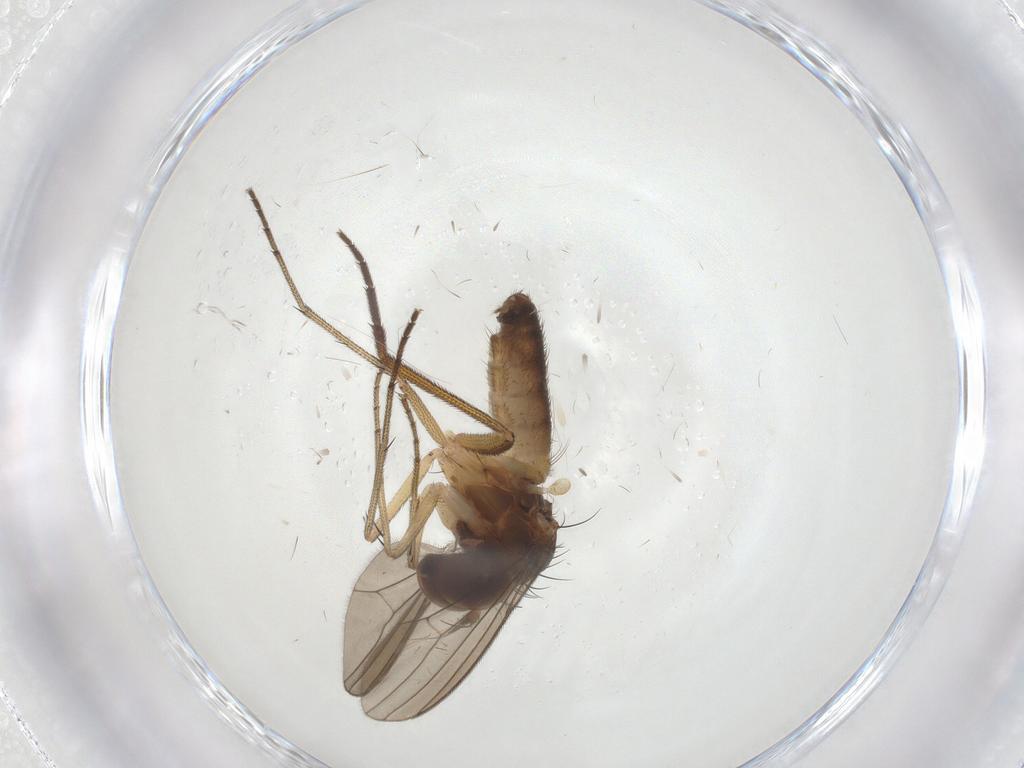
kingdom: Animalia
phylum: Arthropoda
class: Insecta
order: Diptera
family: Dolichopodidae
